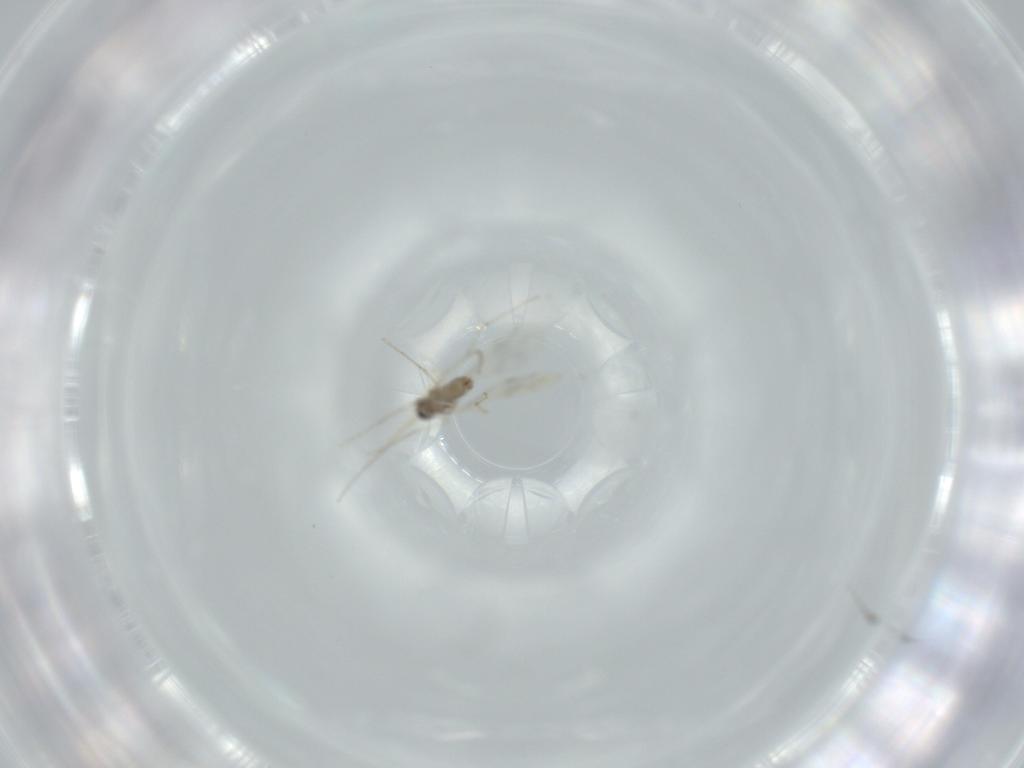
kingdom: Animalia
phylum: Arthropoda
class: Insecta
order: Diptera
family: Cecidomyiidae
